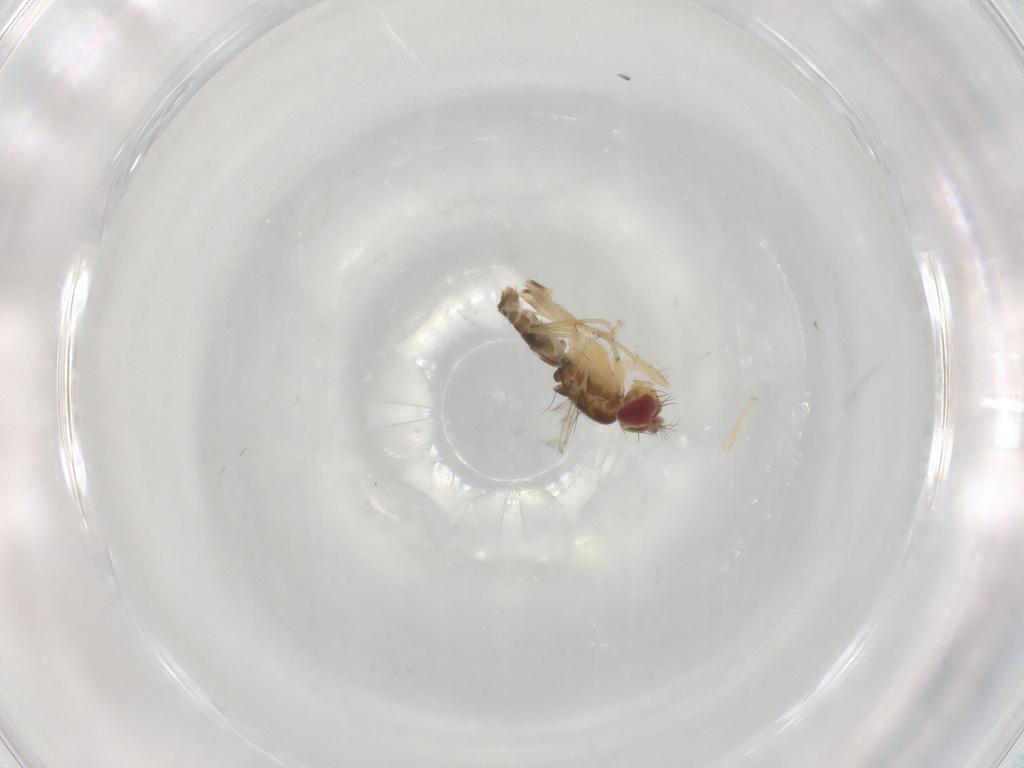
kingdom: Animalia
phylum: Arthropoda
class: Insecta
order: Diptera
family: Periscelididae
